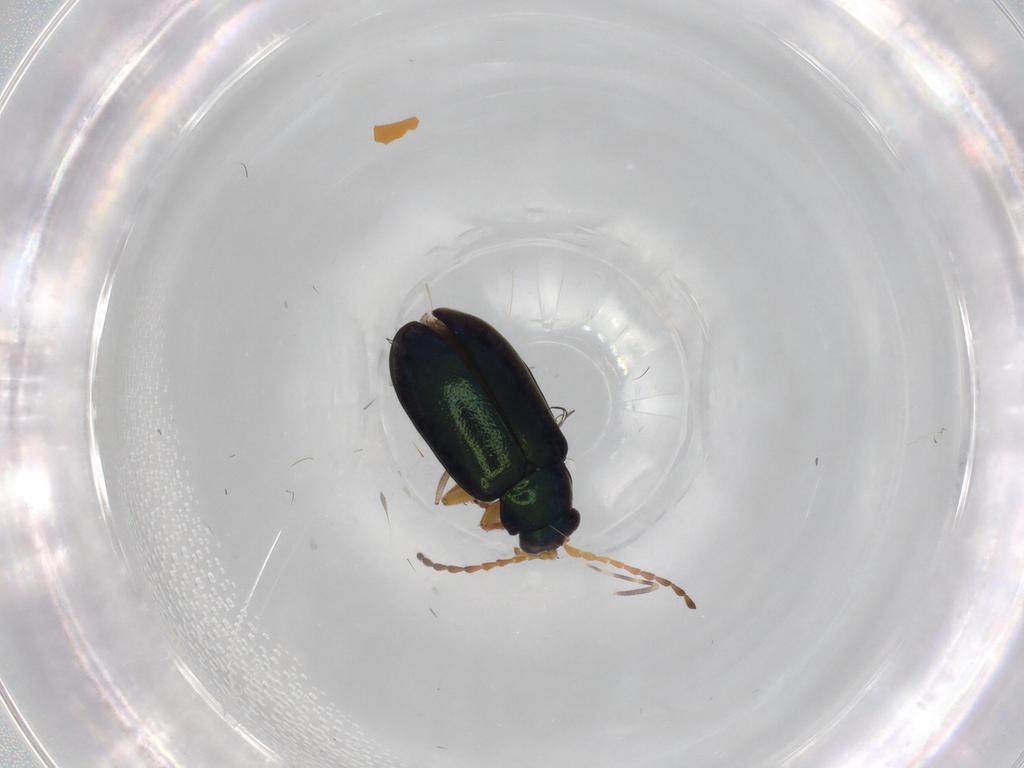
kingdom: Animalia
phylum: Arthropoda
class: Insecta
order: Coleoptera
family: Chrysomelidae
